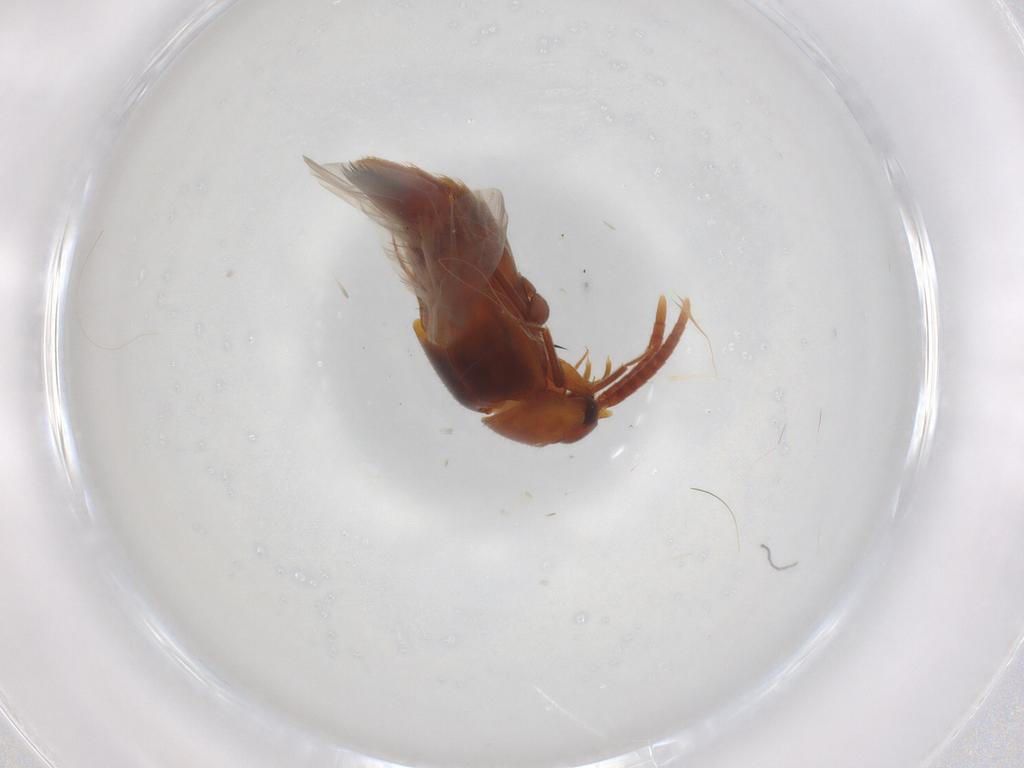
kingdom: Animalia
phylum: Arthropoda
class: Insecta
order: Coleoptera
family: Staphylinidae
